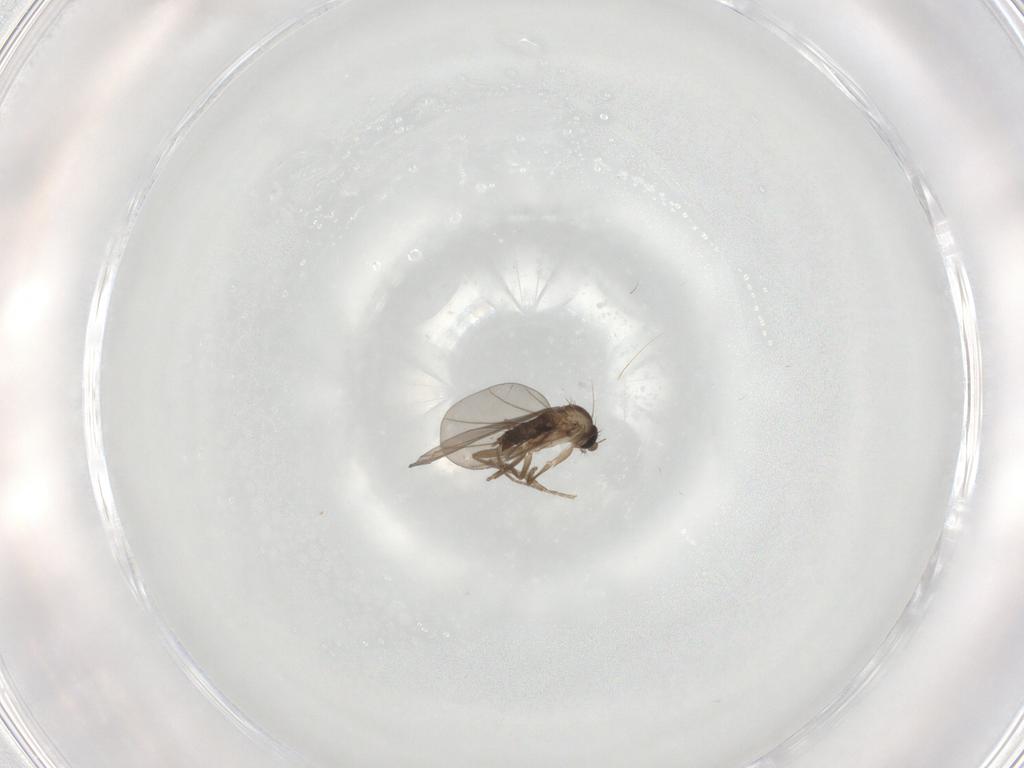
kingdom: Animalia
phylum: Arthropoda
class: Insecta
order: Diptera
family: Phoridae
